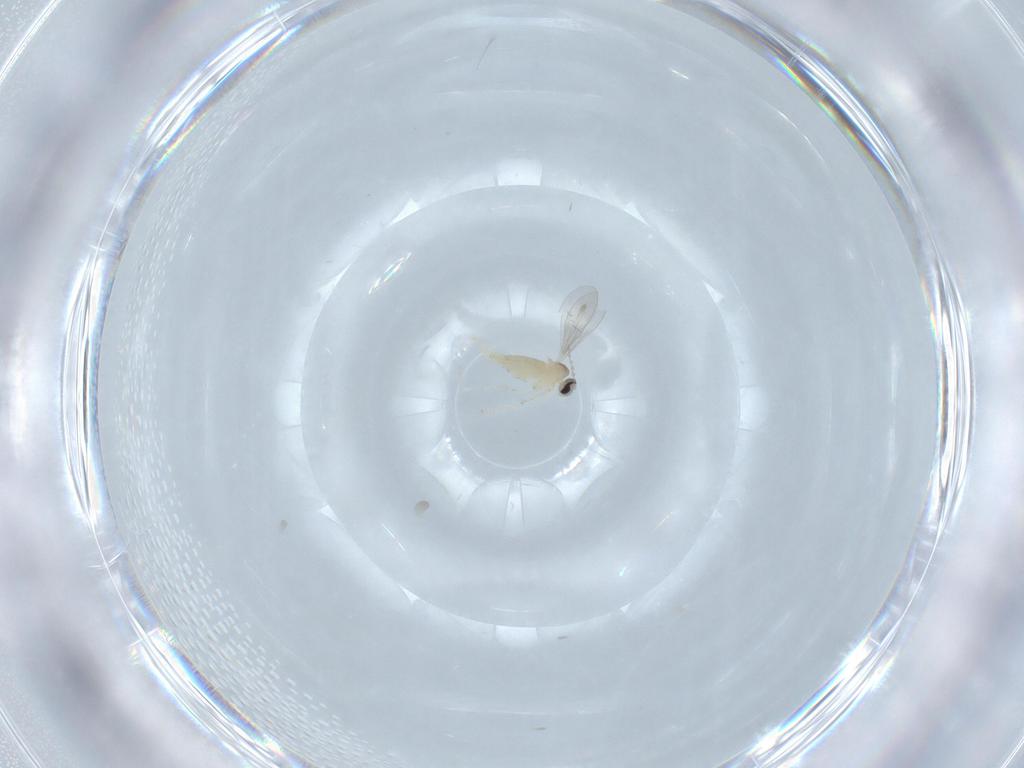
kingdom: Animalia
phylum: Arthropoda
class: Insecta
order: Diptera
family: Cecidomyiidae
